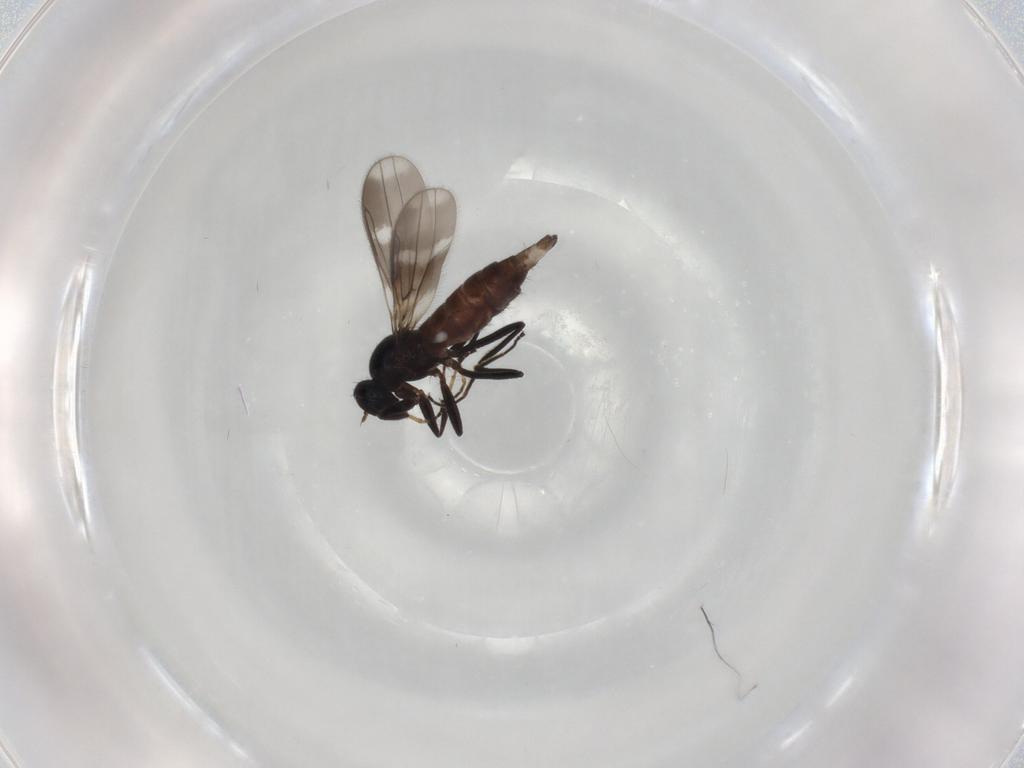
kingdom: Animalia
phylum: Arthropoda
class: Insecta
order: Diptera
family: Hybotidae
